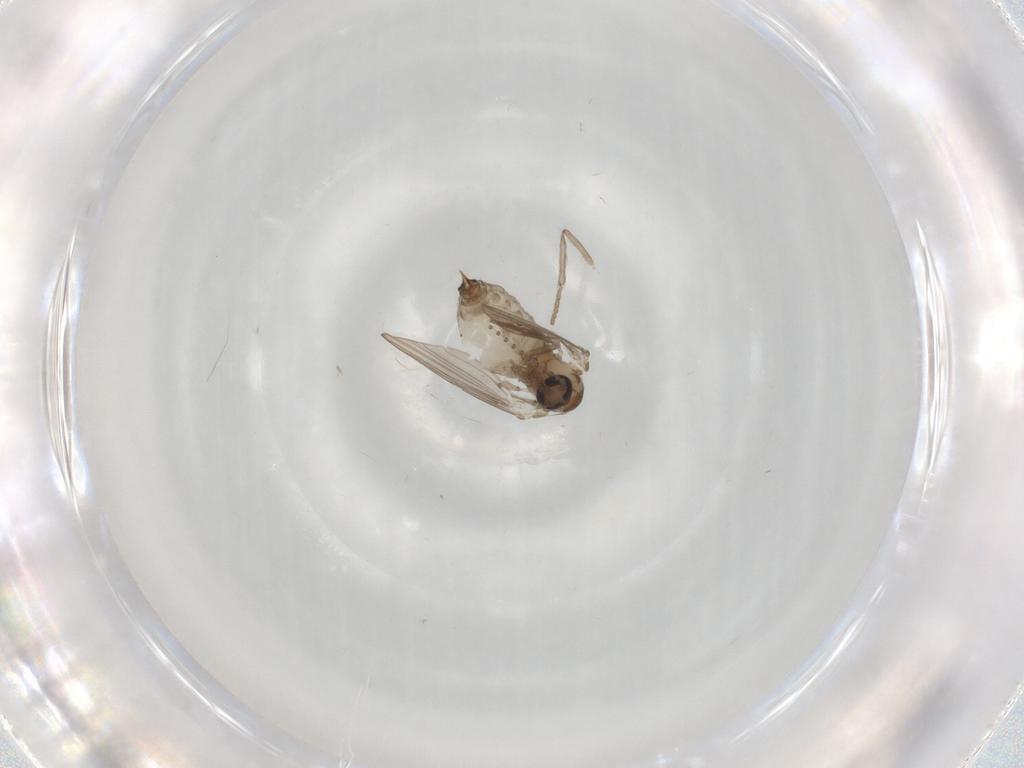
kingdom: Animalia
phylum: Arthropoda
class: Insecta
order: Diptera
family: Psychodidae
